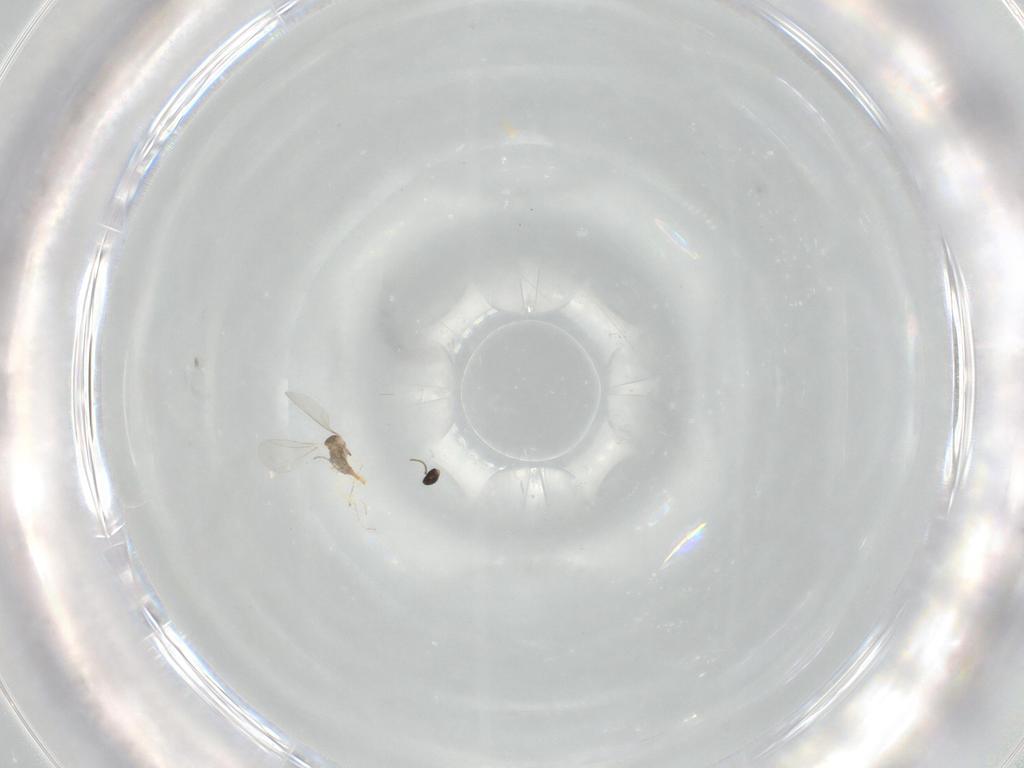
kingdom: Animalia
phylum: Arthropoda
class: Insecta
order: Diptera
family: Cecidomyiidae
